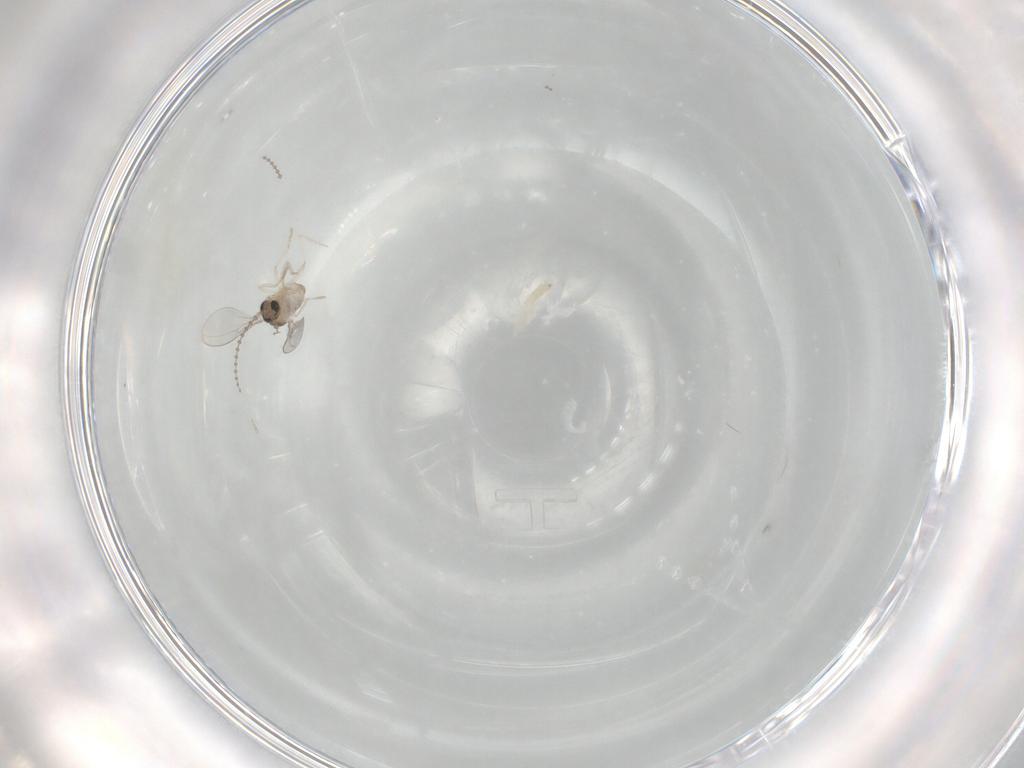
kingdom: Animalia
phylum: Arthropoda
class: Insecta
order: Diptera
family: Cecidomyiidae
